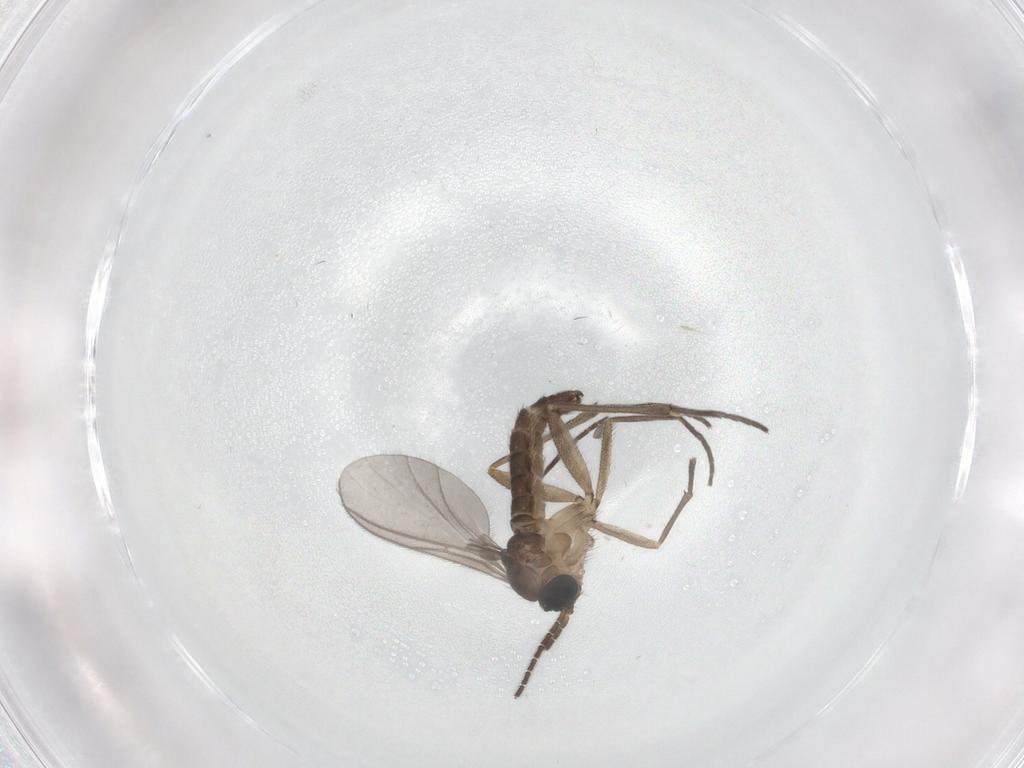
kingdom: Animalia
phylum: Arthropoda
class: Insecta
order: Diptera
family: Sciaridae
